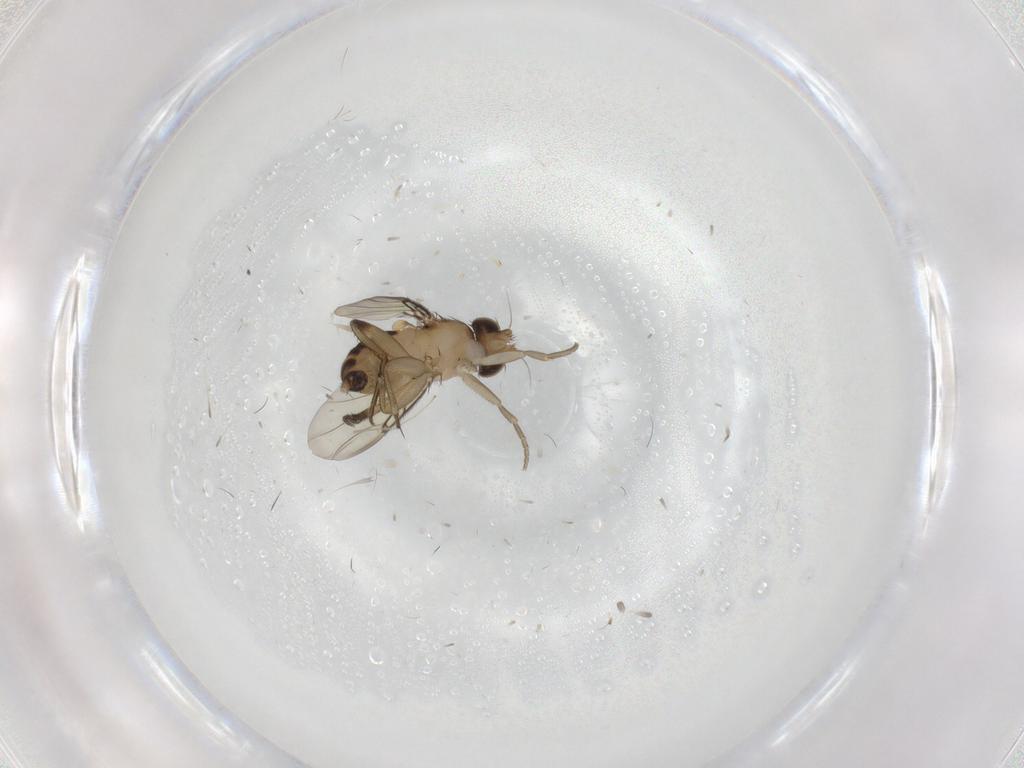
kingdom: Animalia
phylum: Arthropoda
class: Insecta
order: Diptera
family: Phoridae
